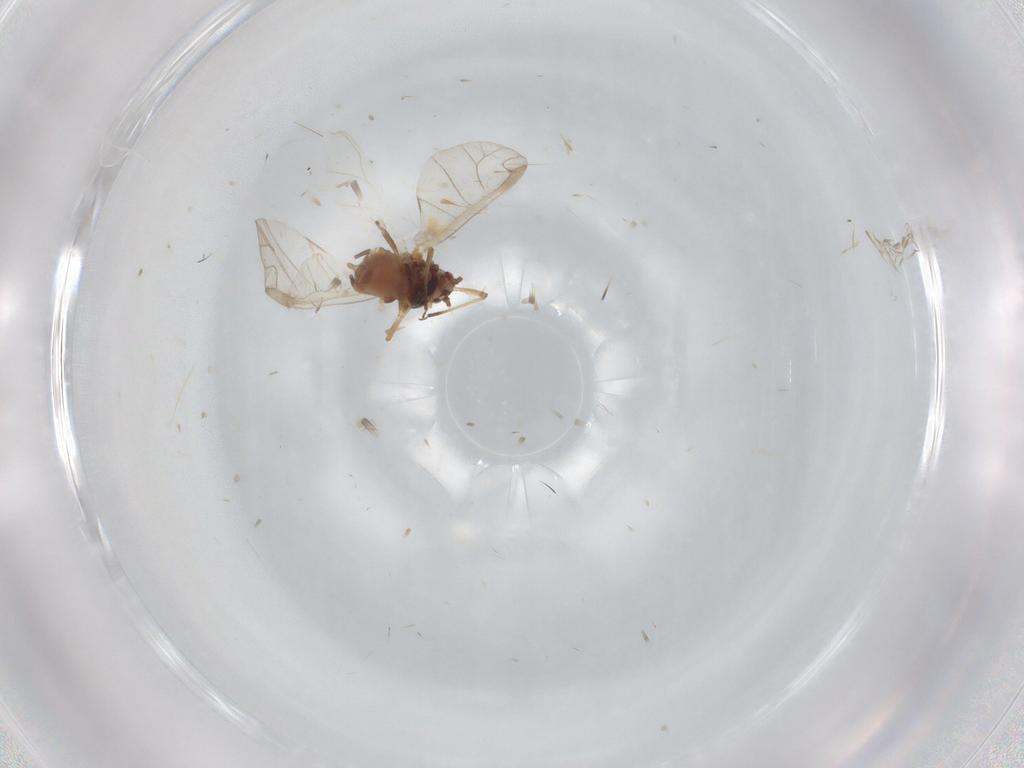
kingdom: Animalia
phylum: Arthropoda
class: Insecta
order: Hemiptera
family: Aphididae
